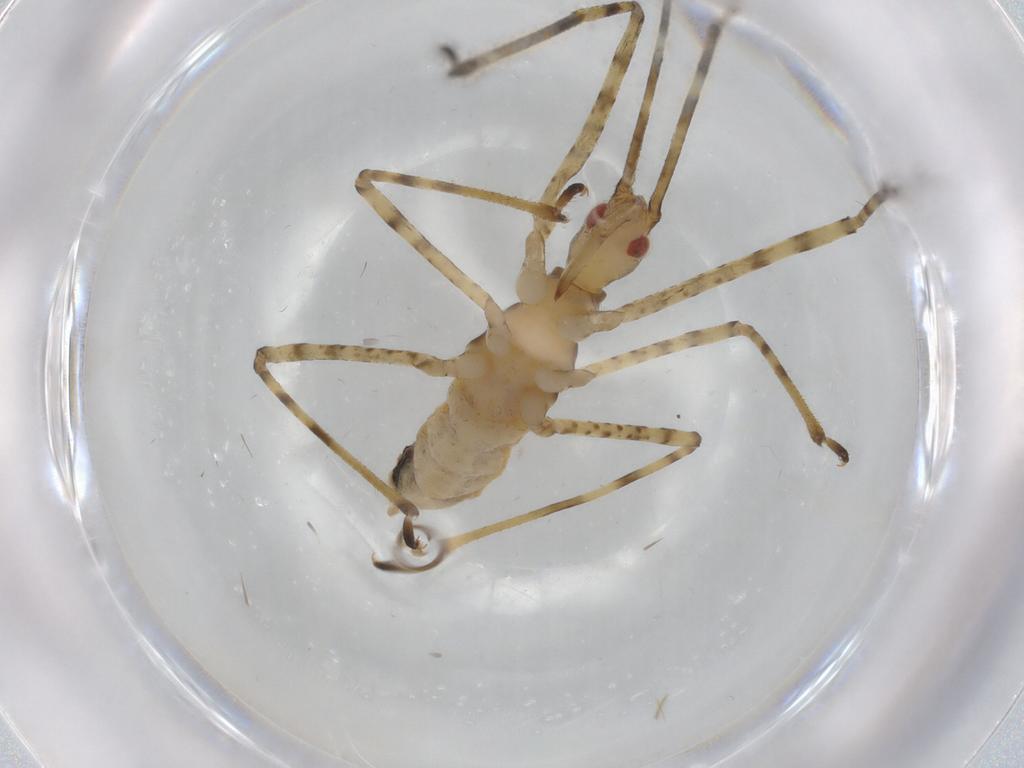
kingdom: Animalia
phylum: Arthropoda
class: Insecta
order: Hemiptera
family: Reduviidae
